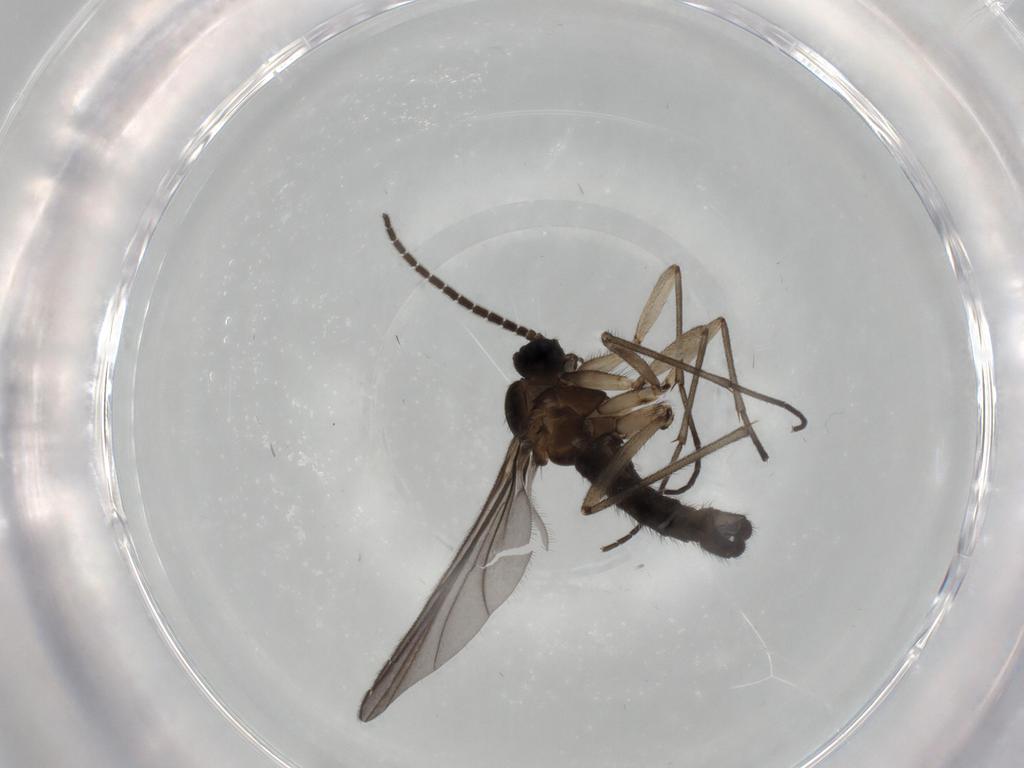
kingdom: Animalia
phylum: Arthropoda
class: Insecta
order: Diptera
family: Sciaridae
